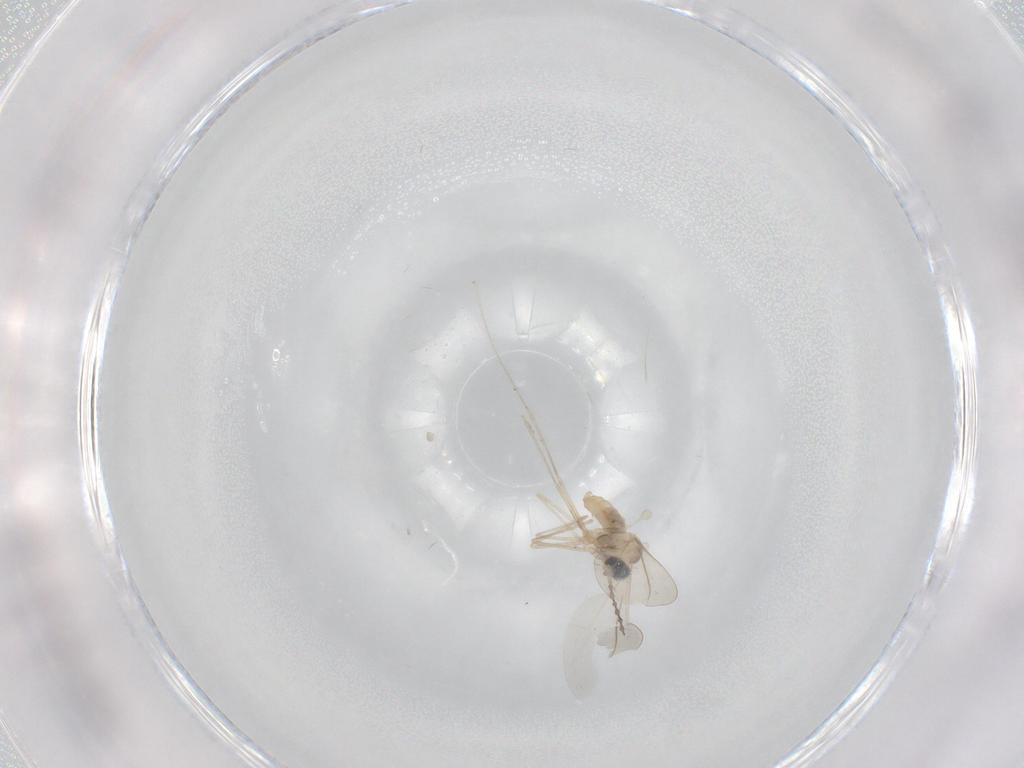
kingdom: Animalia
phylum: Arthropoda
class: Insecta
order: Diptera
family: Cecidomyiidae
